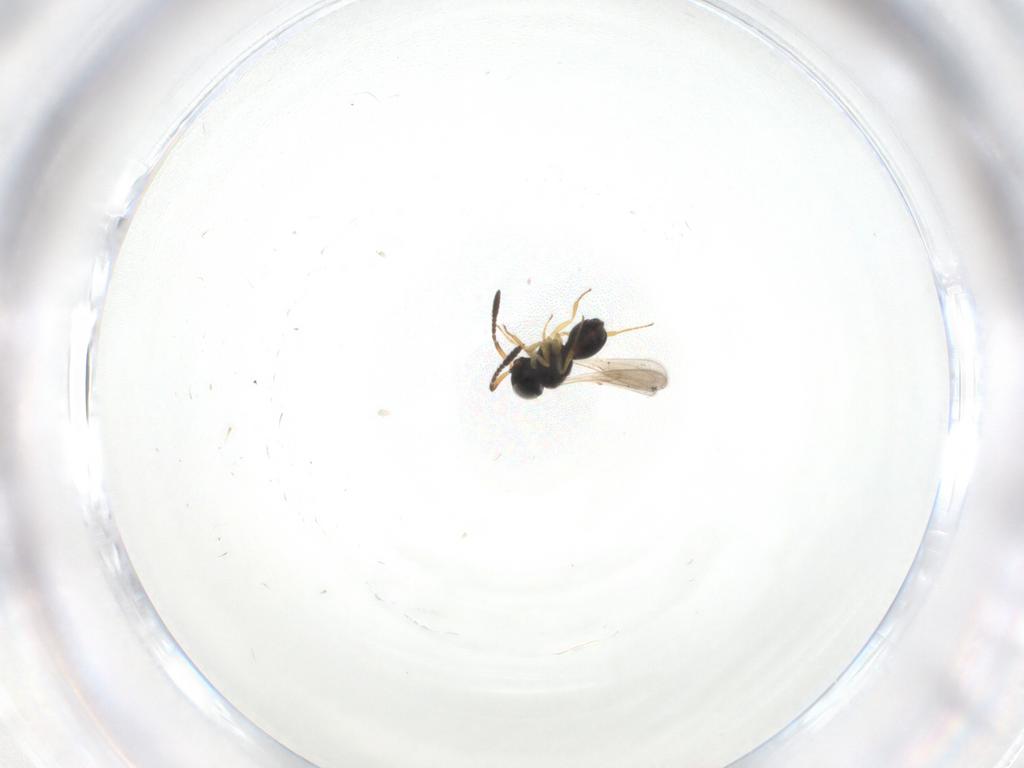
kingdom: Animalia
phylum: Arthropoda
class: Insecta
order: Hymenoptera
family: Scelionidae
